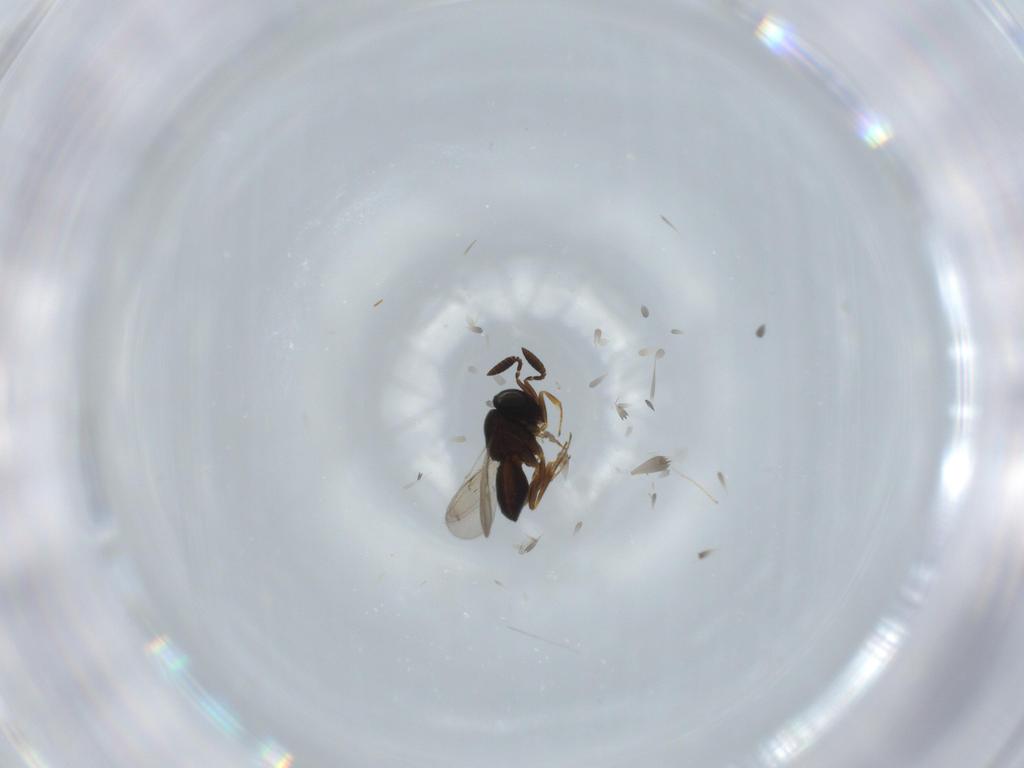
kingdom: Animalia
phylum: Arthropoda
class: Insecta
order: Hymenoptera
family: Scelionidae
